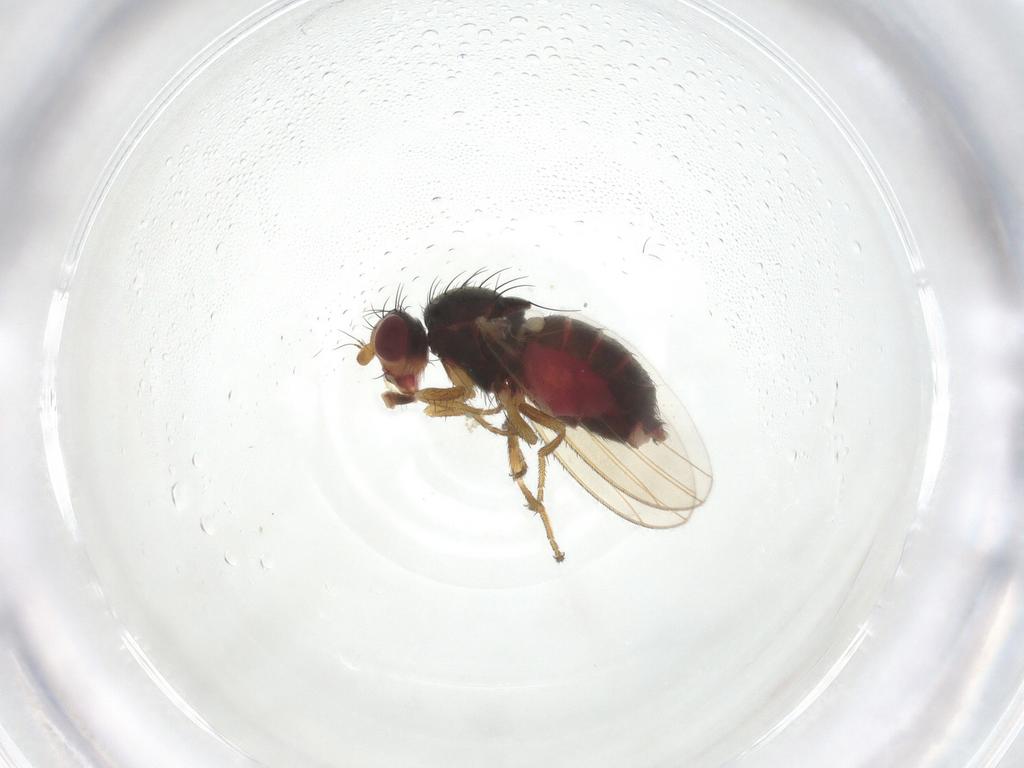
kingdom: Animalia
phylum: Arthropoda
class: Insecta
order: Diptera
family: Heleomyzidae
